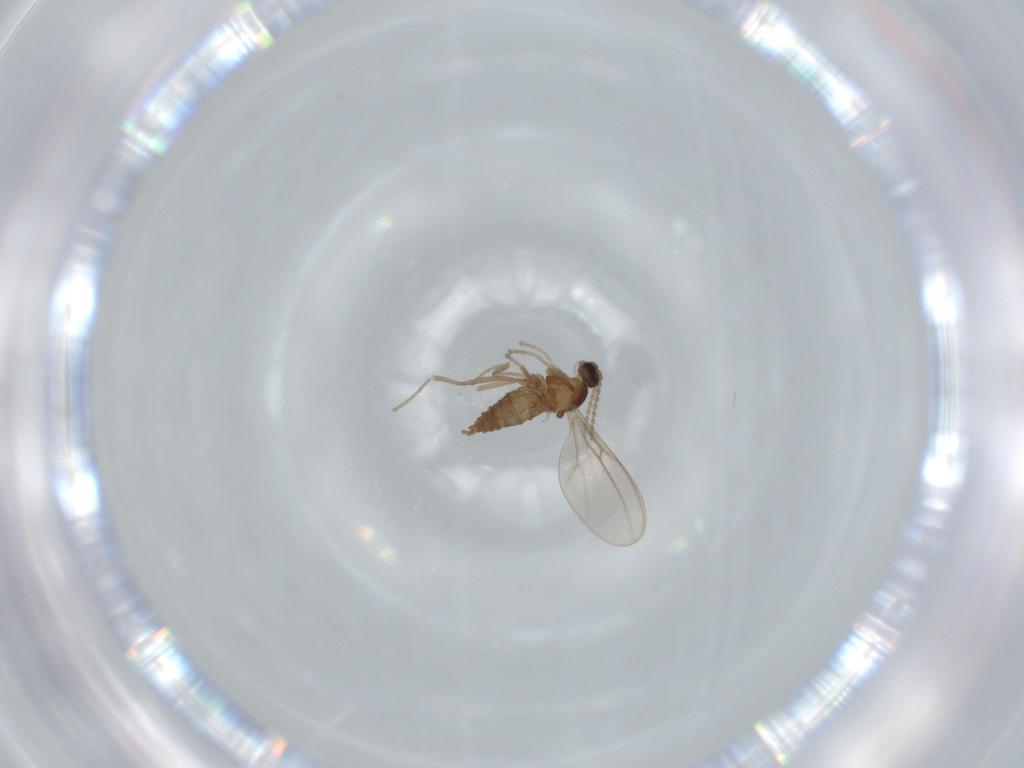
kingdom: Animalia
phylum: Arthropoda
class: Insecta
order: Diptera
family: Cecidomyiidae
